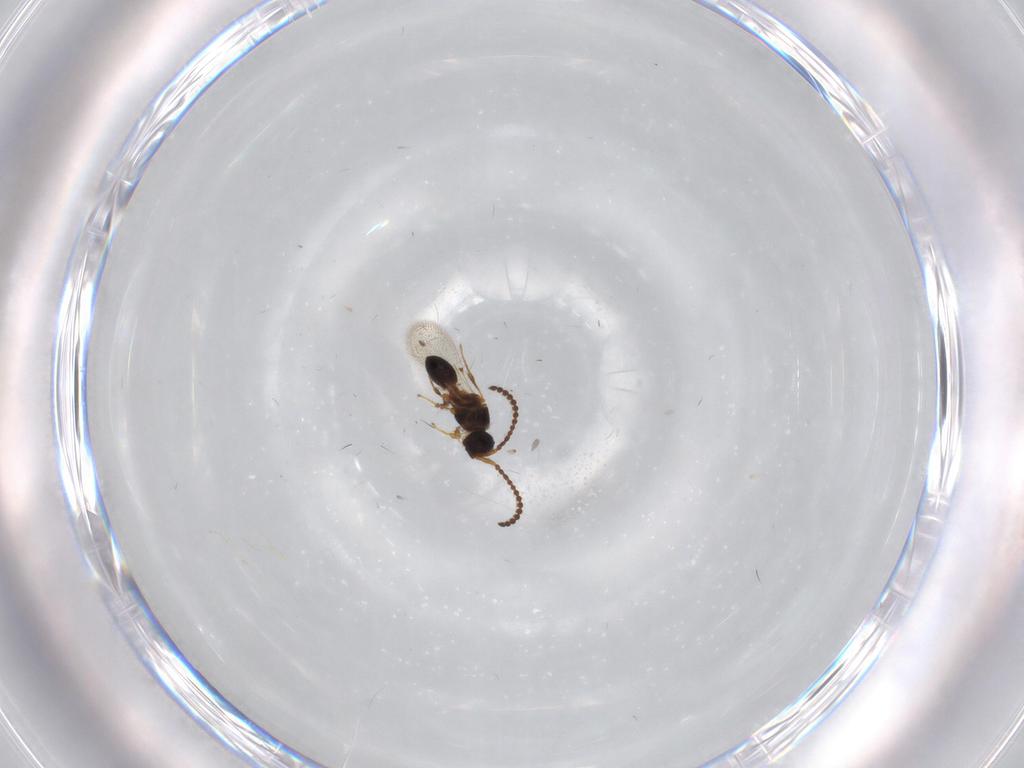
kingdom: Animalia
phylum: Arthropoda
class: Insecta
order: Hymenoptera
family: Diapriidae
